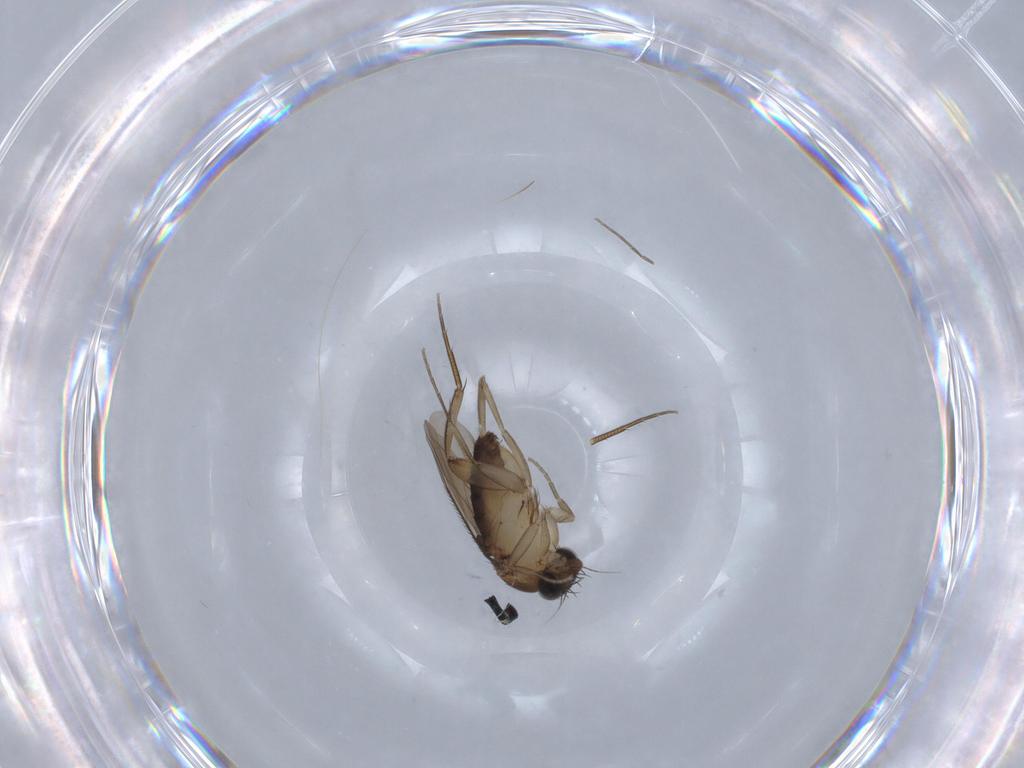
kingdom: Animalia
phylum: Arthropoda
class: Insecta
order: Diptera
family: Phoridae
